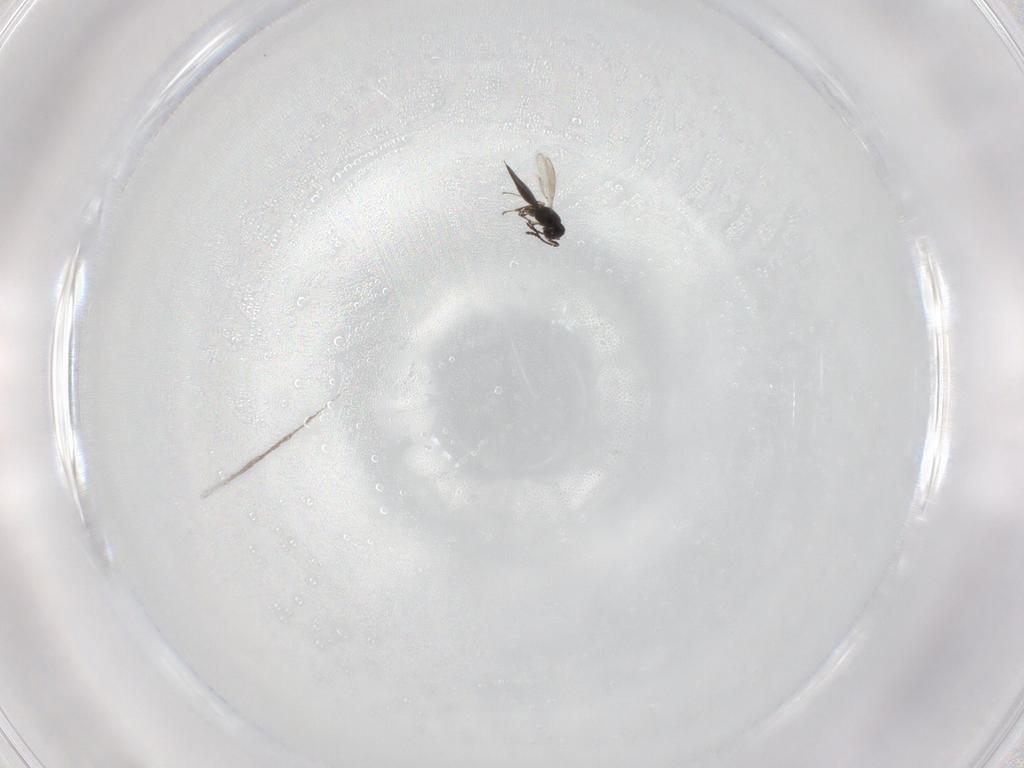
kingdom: Animalia
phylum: Arthropoda
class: Insecta
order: Hymenoptera
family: Scelionidae
